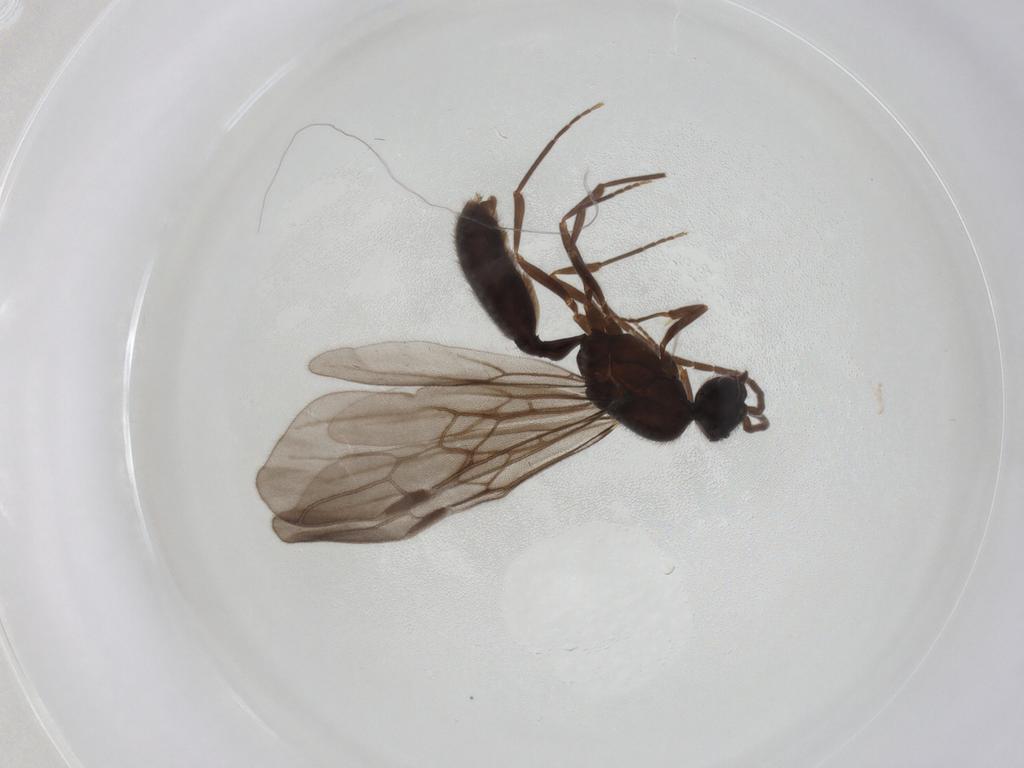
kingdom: Animalia
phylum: Arthropoda
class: Insecta
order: Hymenoptera
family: Formicidae
